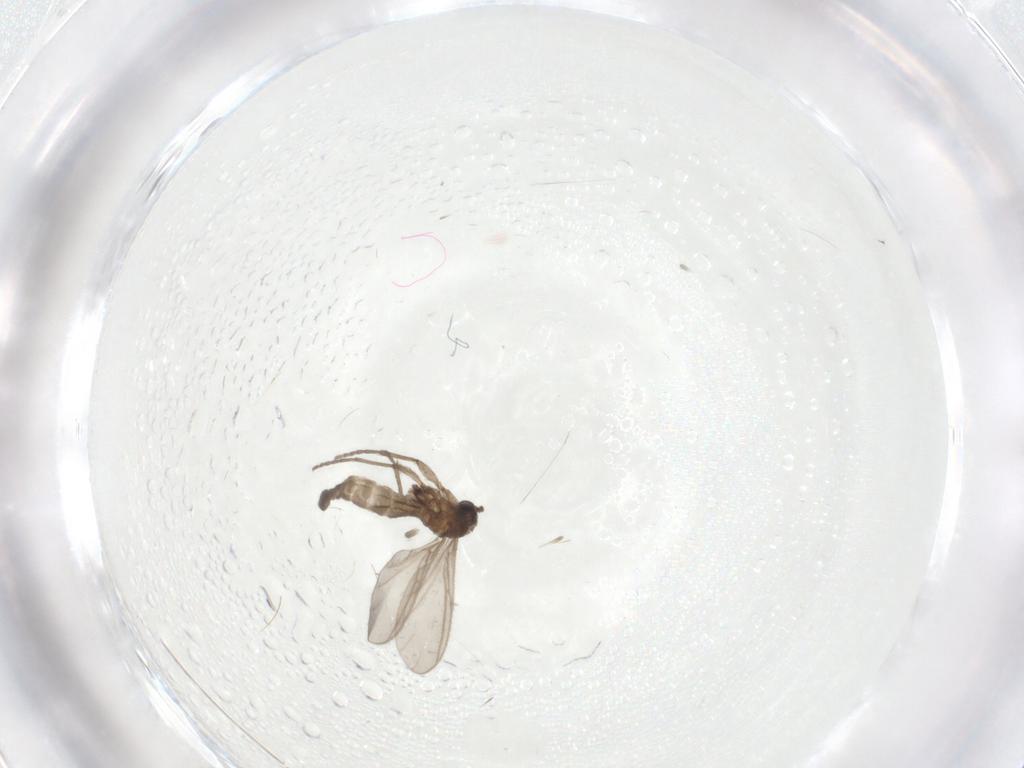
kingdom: Animalia
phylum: Arthropoda
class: Insecta
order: Diptera
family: Sciaridae
